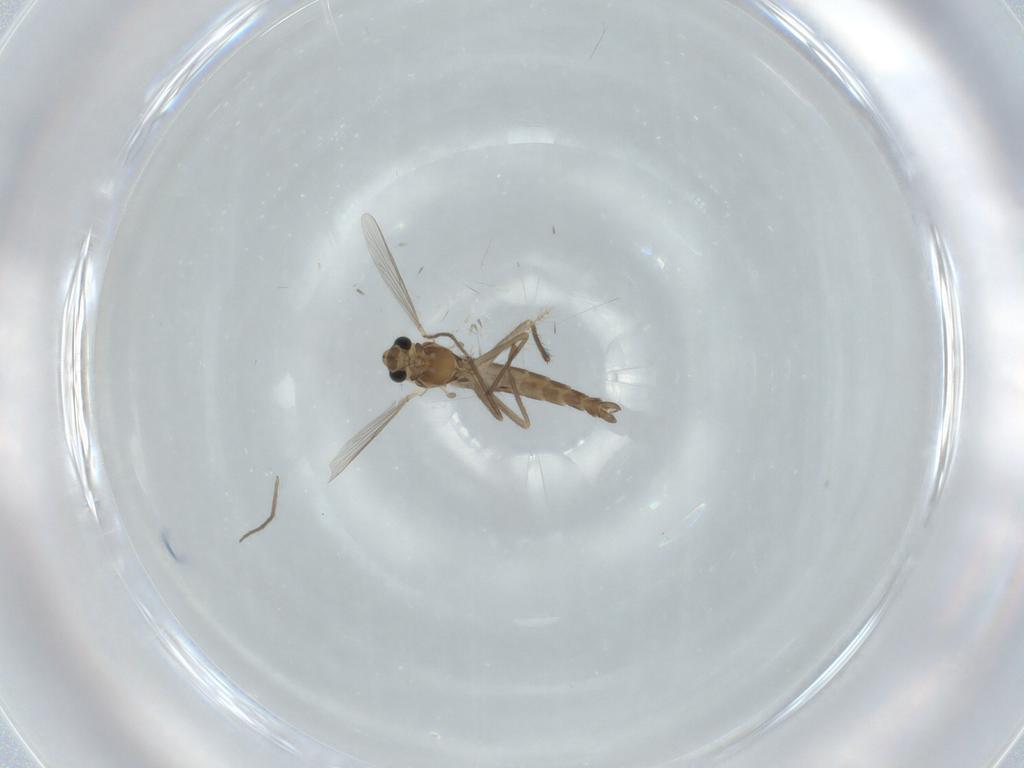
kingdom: Animalia
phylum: Arthropoda
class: Insecta
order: Diptera
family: Chironomidae
